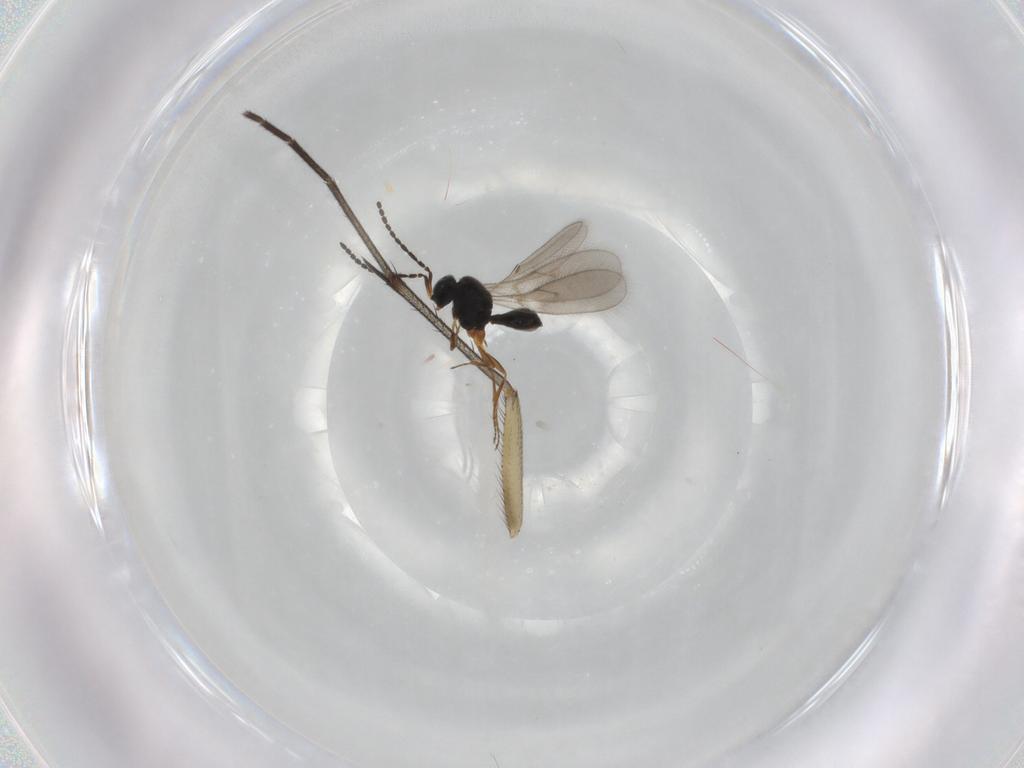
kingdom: Animalia
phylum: Arthropoda
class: Insecta
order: Hymenoptera
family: Scelionidae
